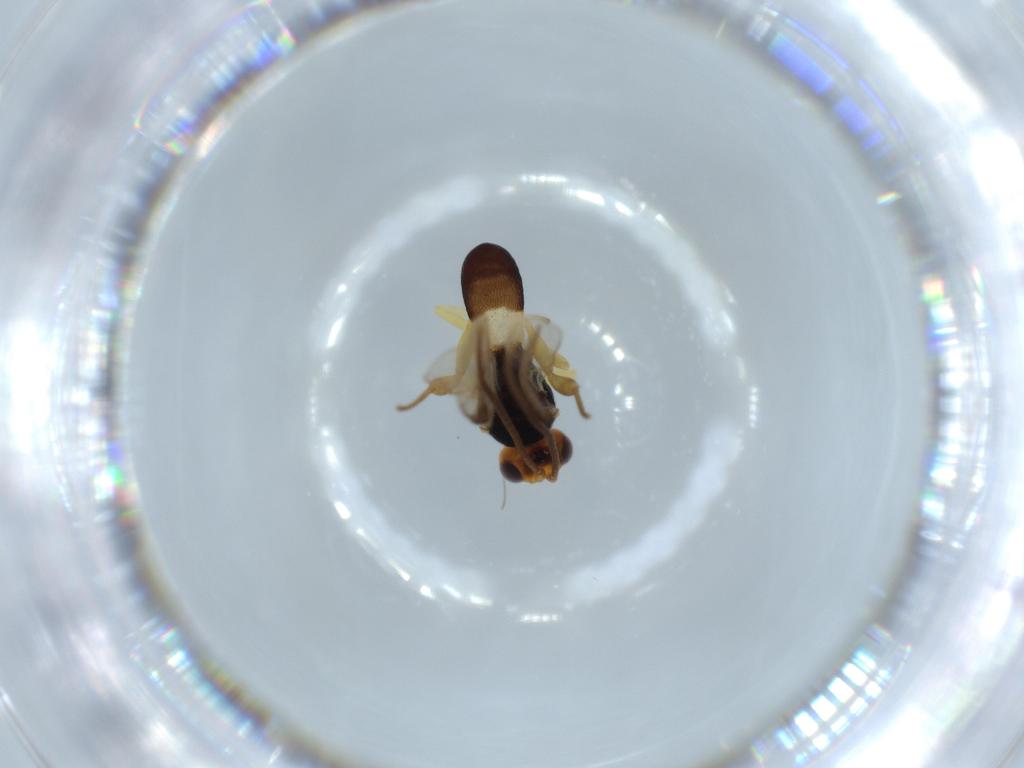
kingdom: Animalia
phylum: Arthropoda
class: Insecta
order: Hymenoptera
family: Braconidae
